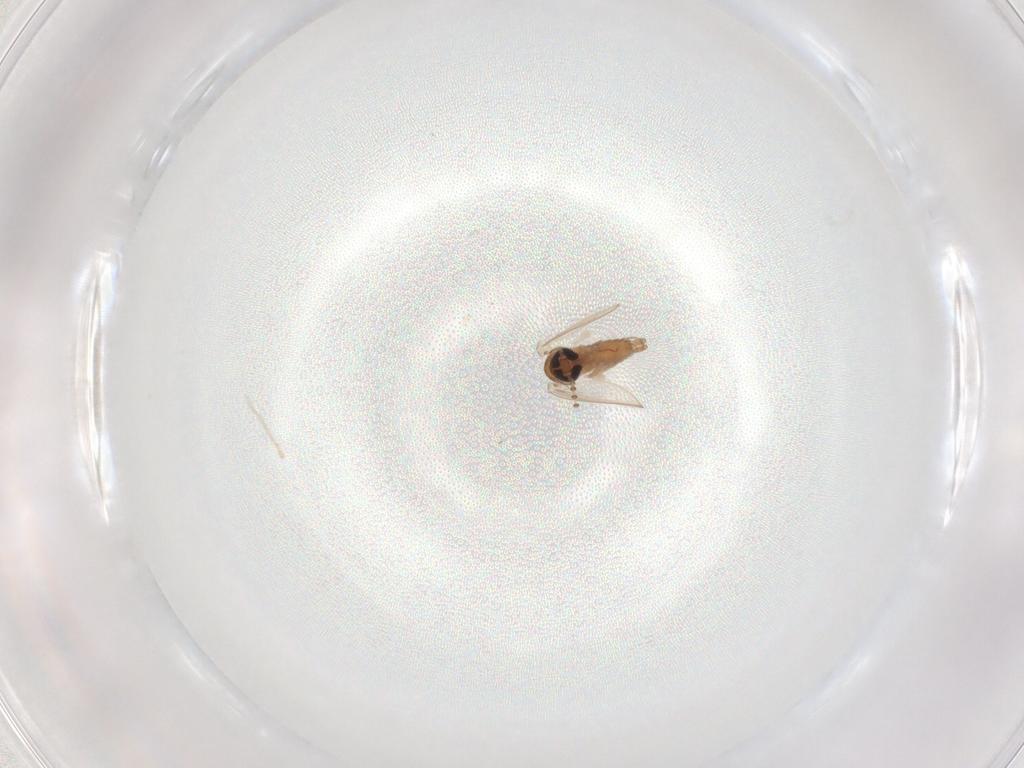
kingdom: Animalia
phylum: Arthropoda
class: Insecta
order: Diptera
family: Psychodidae
